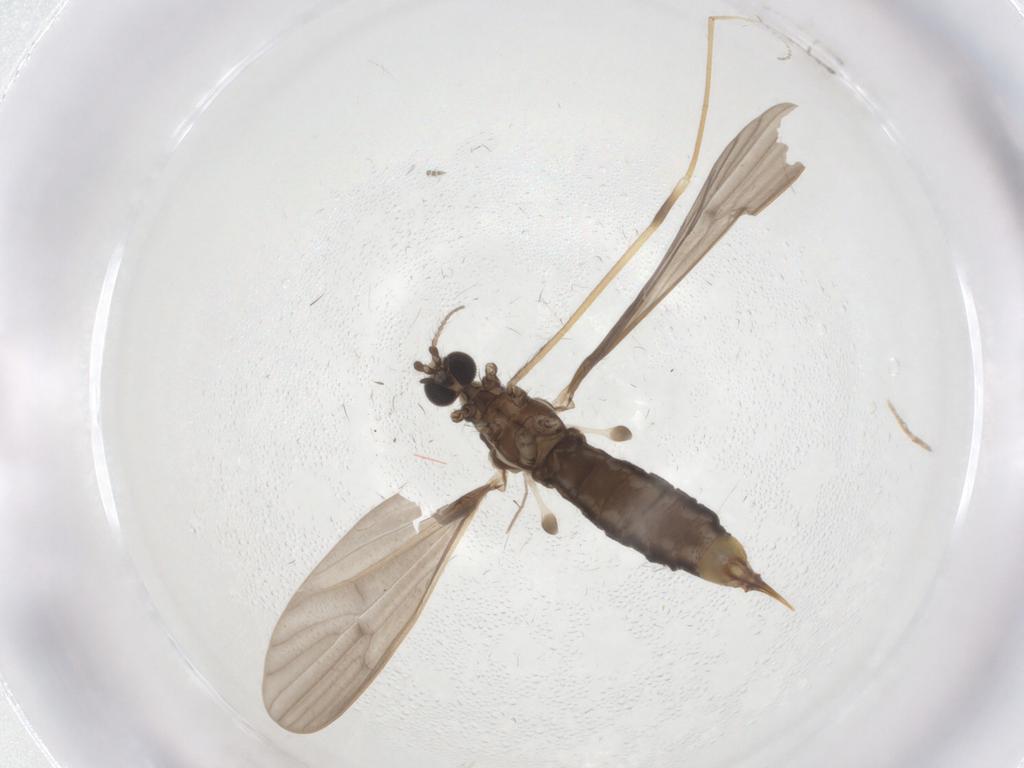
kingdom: Animalia
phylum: Arthropoda
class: Insecta
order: Diptera
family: Limoniidae
